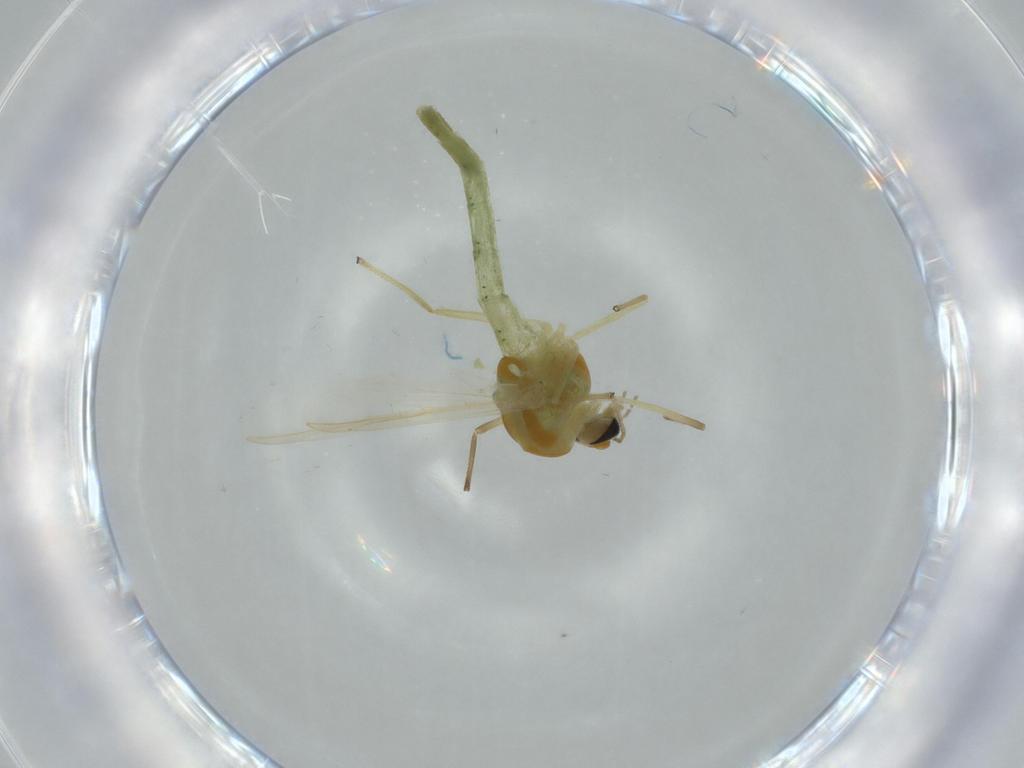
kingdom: Animalia
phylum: Arthropoda
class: Insecta
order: Diptera
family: Chironomidae
